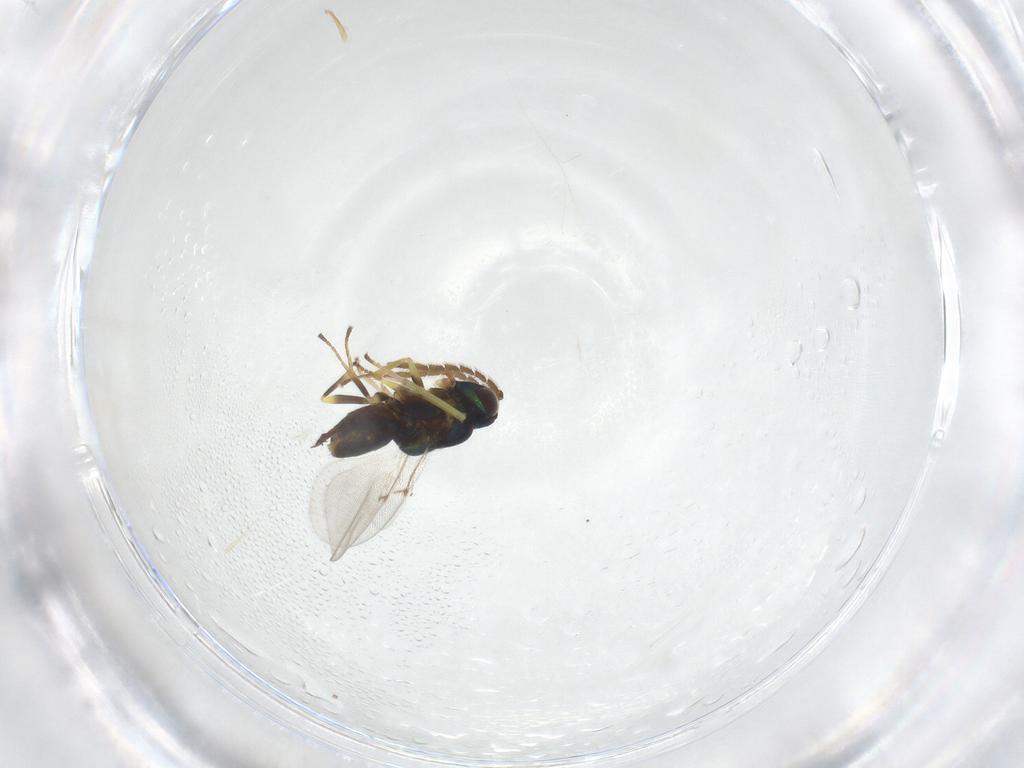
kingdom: Animalia
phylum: Arthropoda
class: Insecta
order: Hymenoptera
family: Encyrtidae
